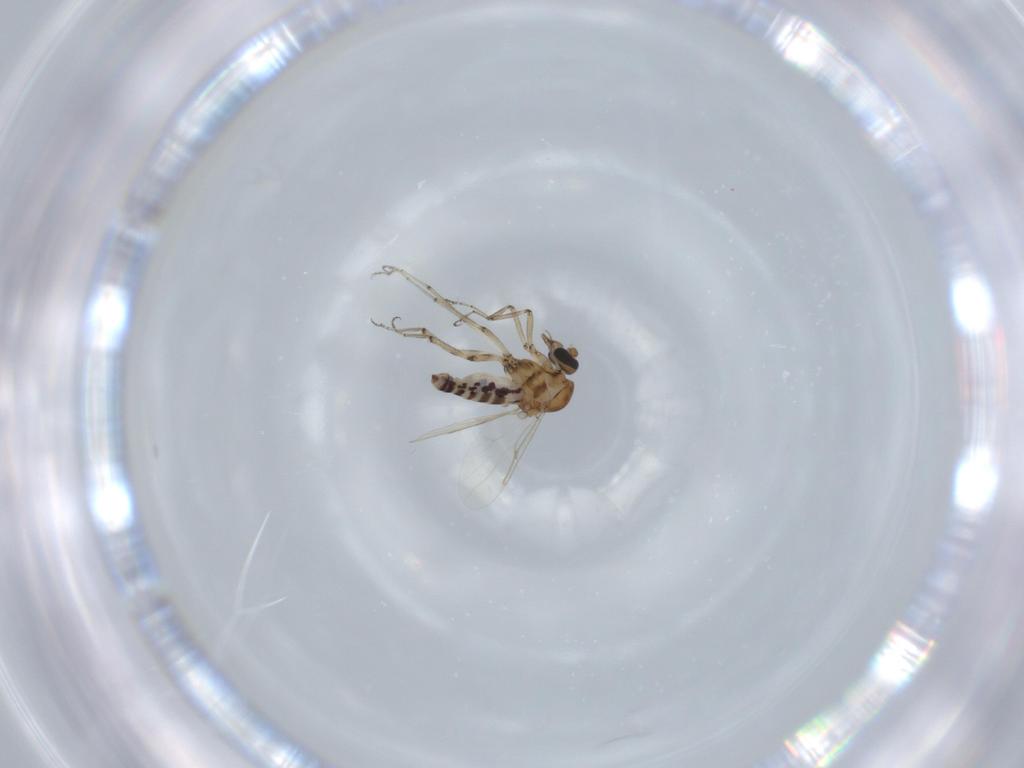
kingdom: Animalia
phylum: Arthropoda
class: Insecta
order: Diptera
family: Sciaridae
